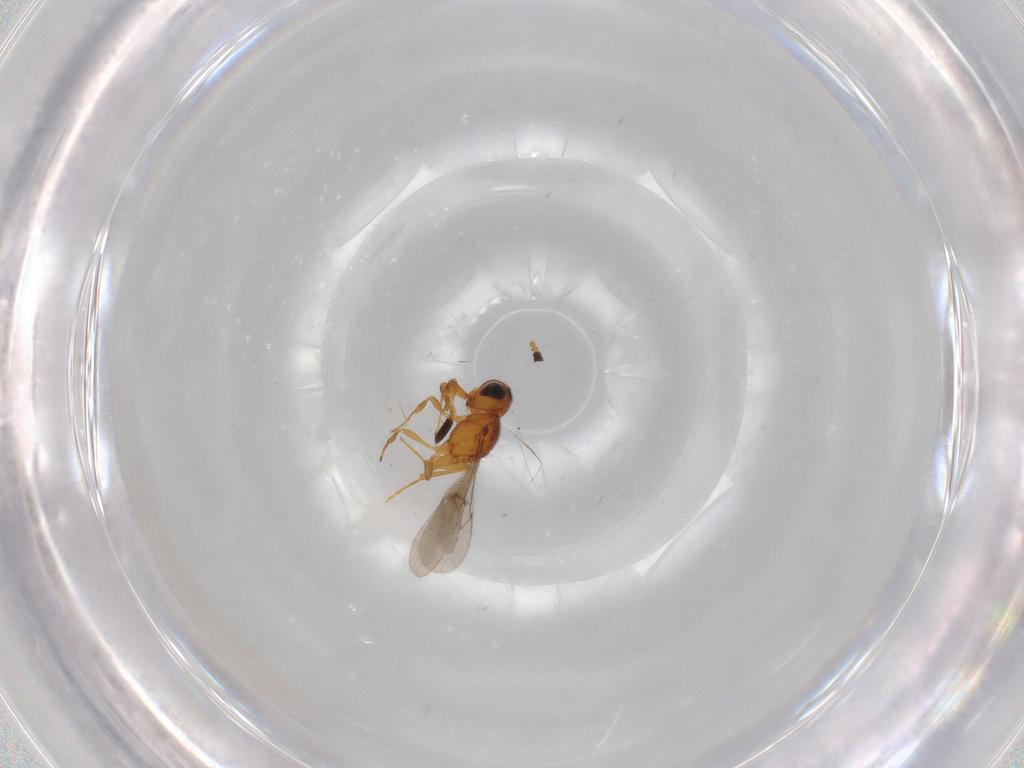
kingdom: Animalia
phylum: Arthropoda
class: Insecta
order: Hymenoptera
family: Scelionidae
